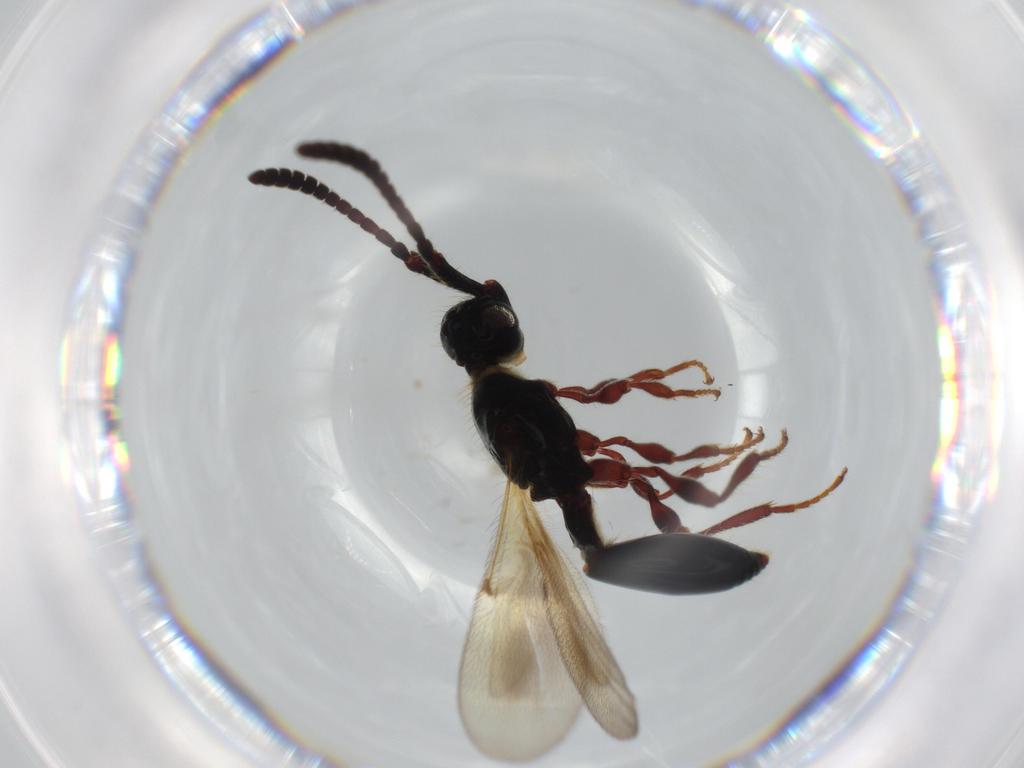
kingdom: Animalia
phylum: Arthropoda
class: Insecta
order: Hymenoptera
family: Diapriidae
